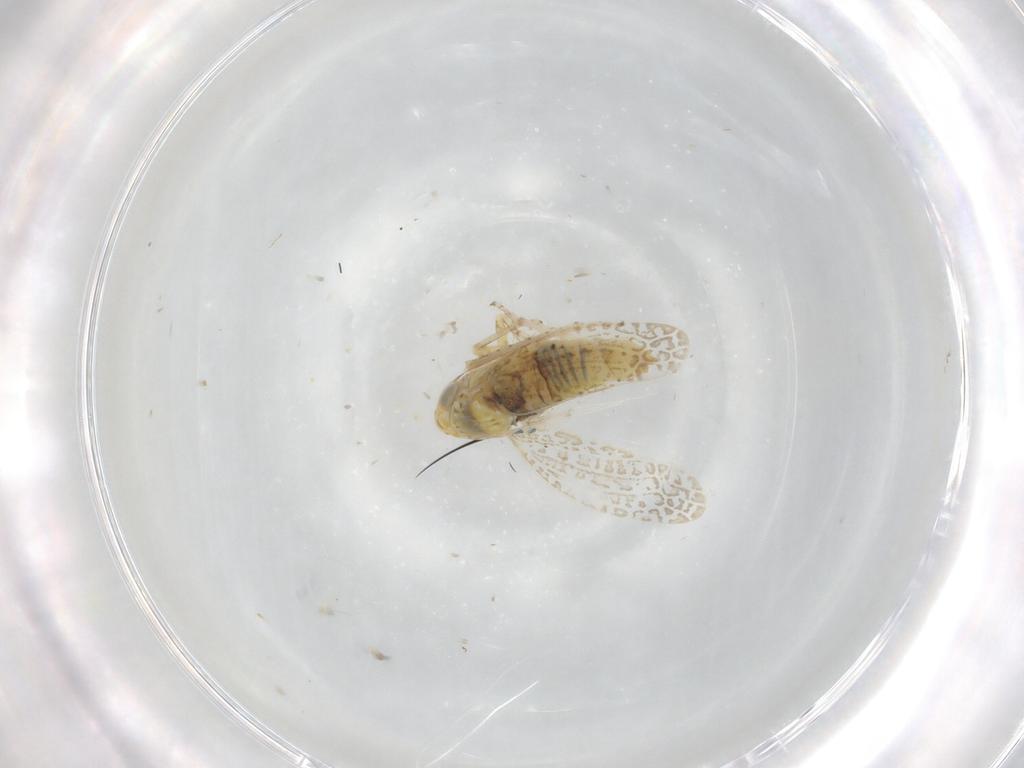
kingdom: Animalia
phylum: Arthropoda
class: Insecta
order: Hemiptera
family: Cicadellidae
